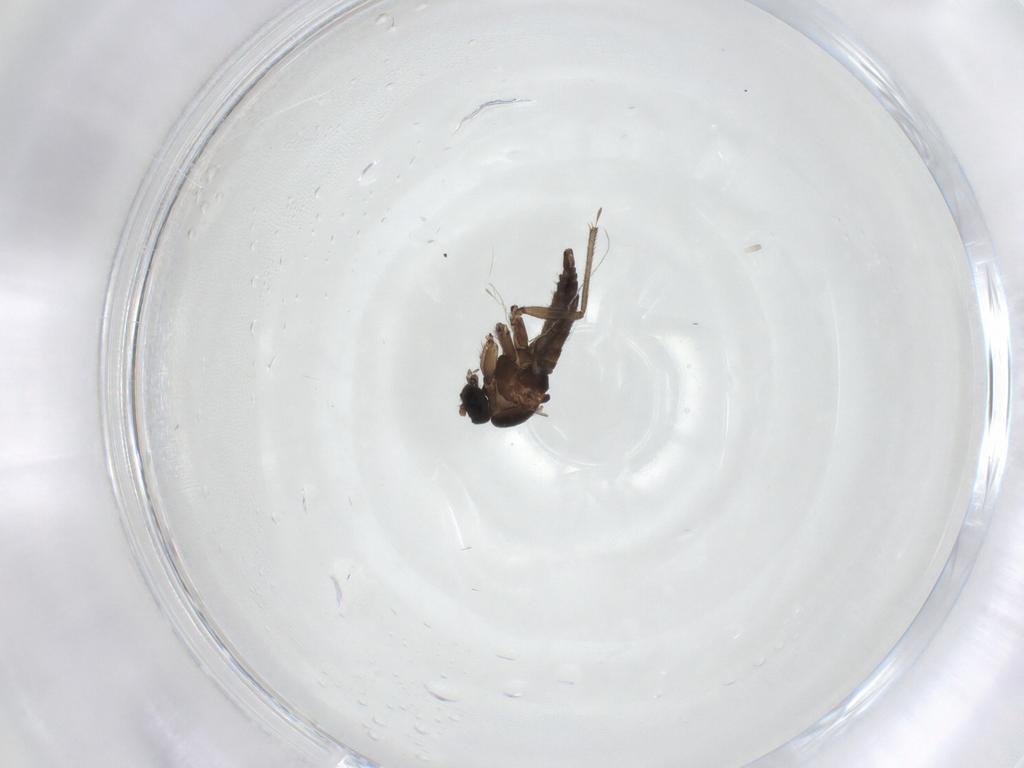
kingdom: Animalia
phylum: Arthropoda
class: Insecta
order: Diptera
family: Sciaridae
